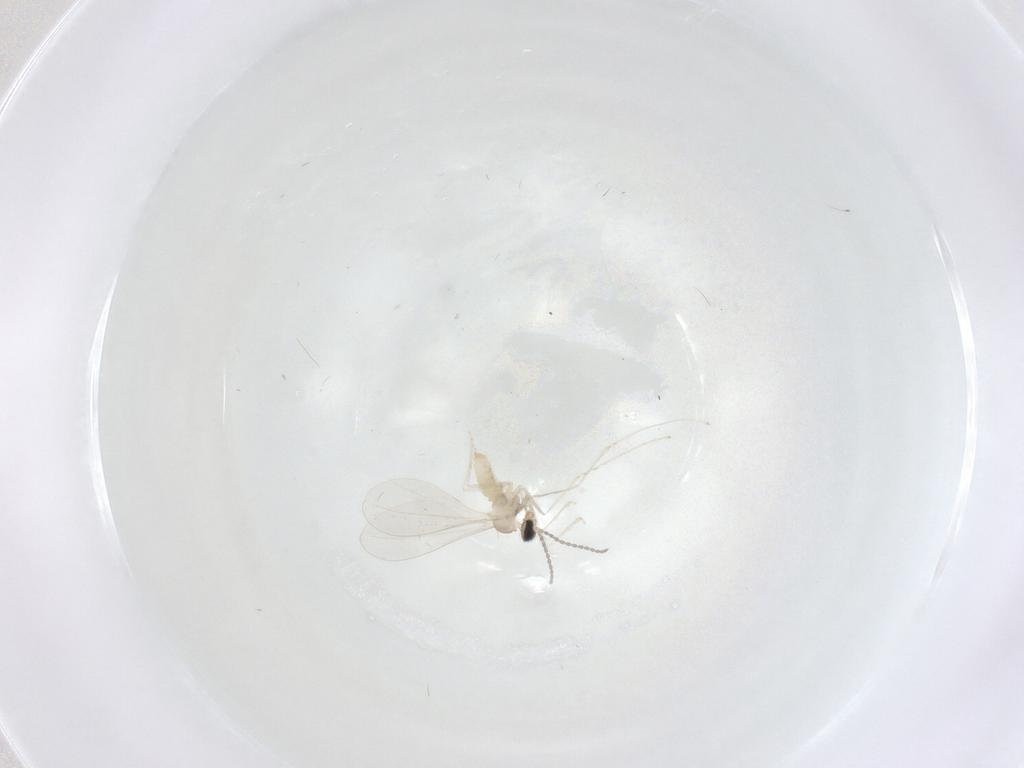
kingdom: Animalia
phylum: Arthropoda
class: Insecta
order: Diptera
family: Cecidomyiidae
